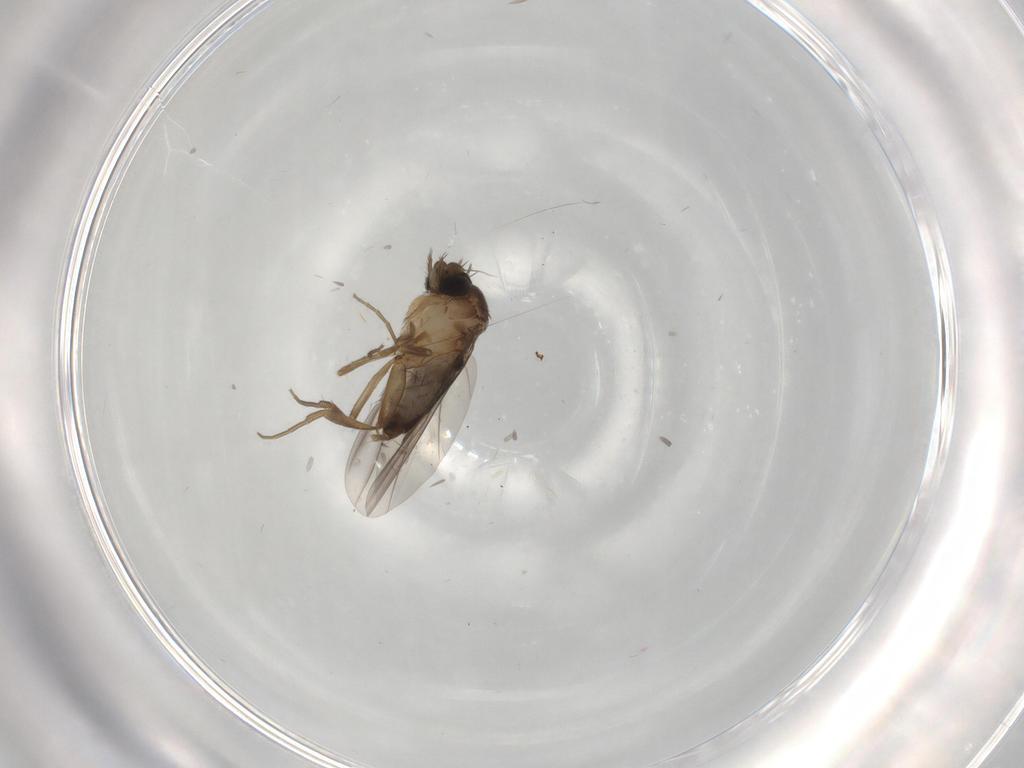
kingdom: Animalia
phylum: Arthropoda
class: Insecta
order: Diptera
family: Phoridae
